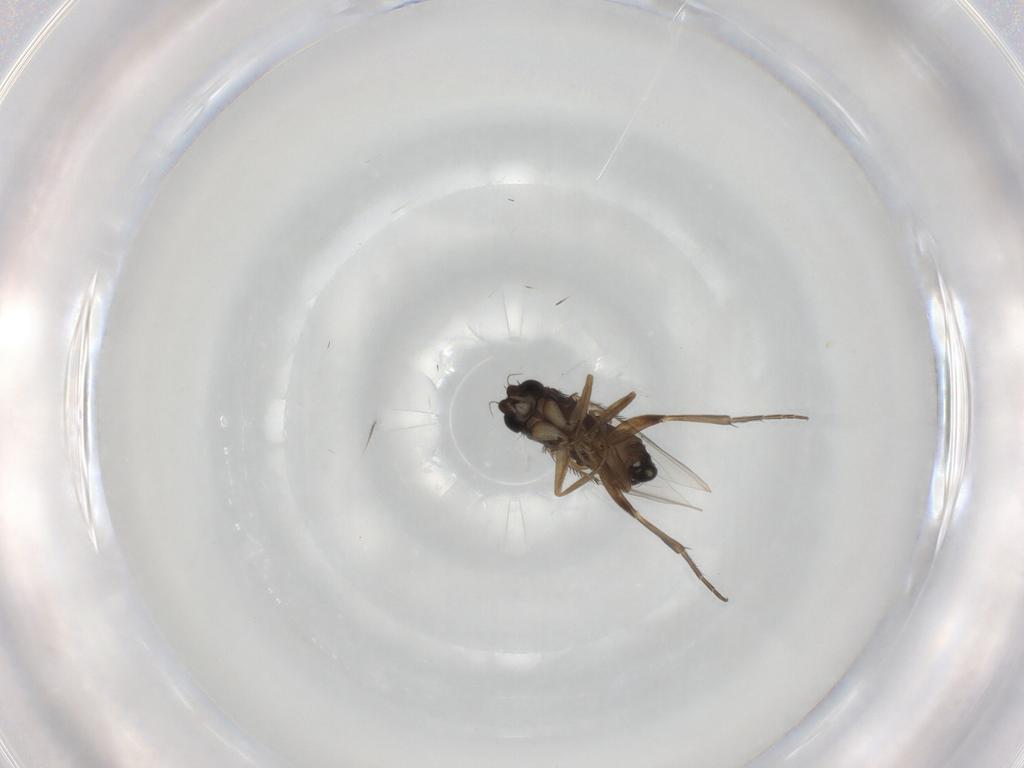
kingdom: Animalia
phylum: Arthropoda
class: Insecta
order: Diptera
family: Phoridae
